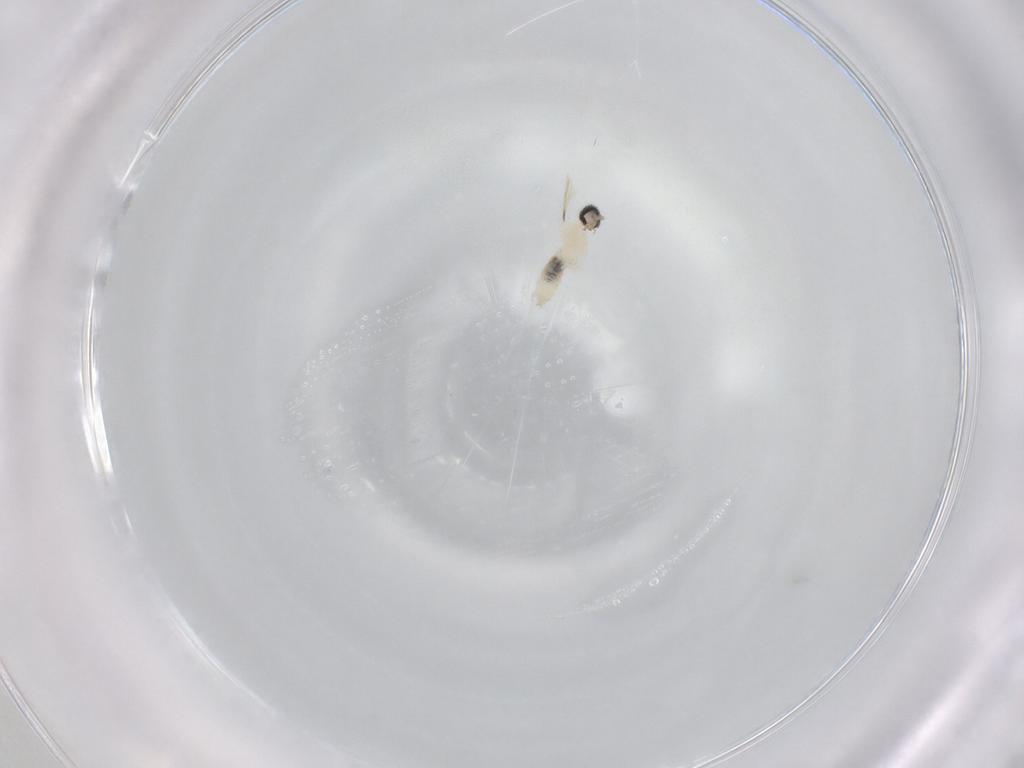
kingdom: Animalia
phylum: Arthropoda
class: Insecta
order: Diptera
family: Cecidomyiidae
